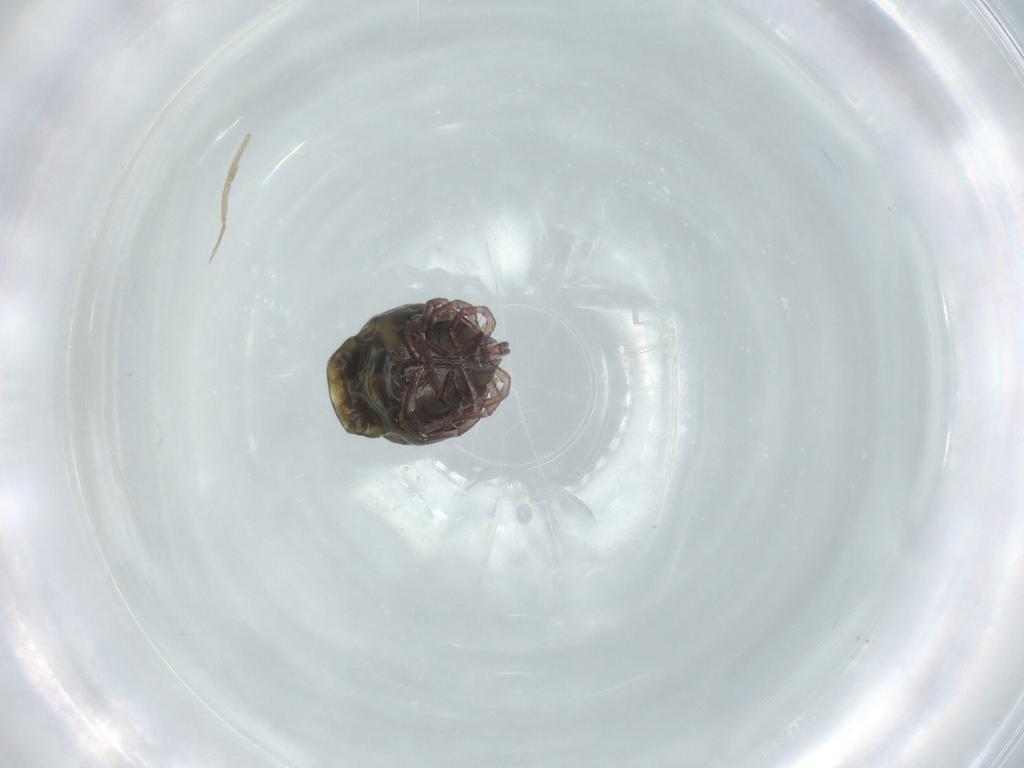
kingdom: Animalia
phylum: Arthropoda
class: Arachnida
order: Trombidiformes
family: Lebertiidae
